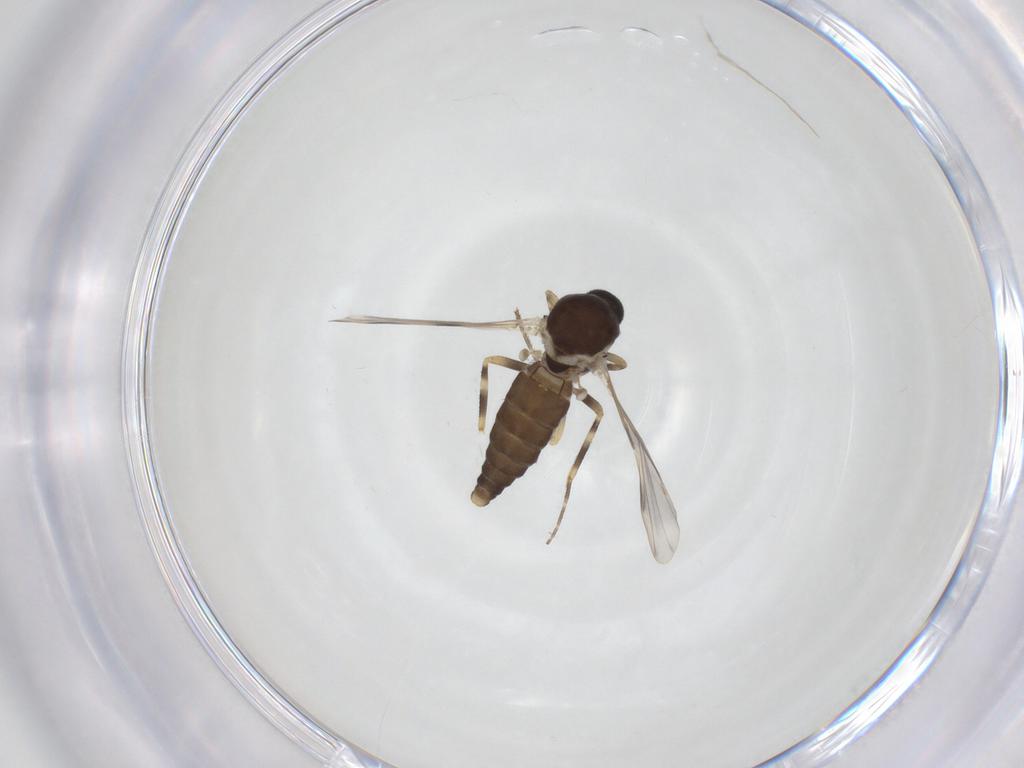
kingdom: Animalia
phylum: Arthropoda
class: Insecta
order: Diptera
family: Ceratopogonidae
